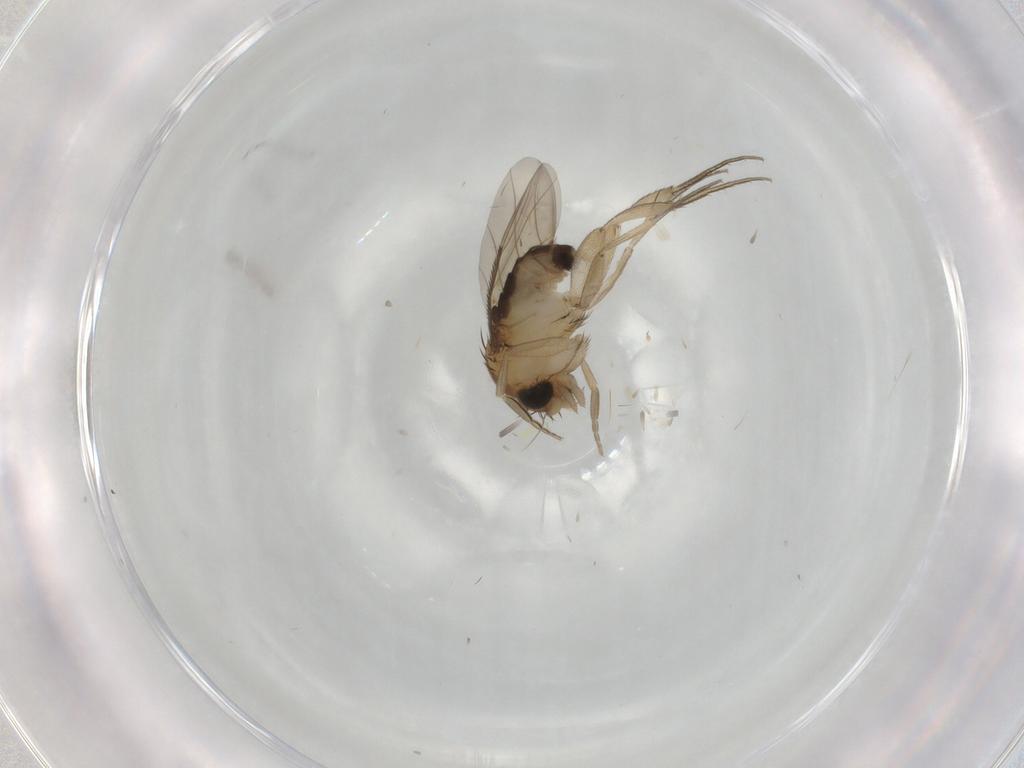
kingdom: Animalia
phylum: Arthropoda
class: Insecta
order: Diptera
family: Phoridae
